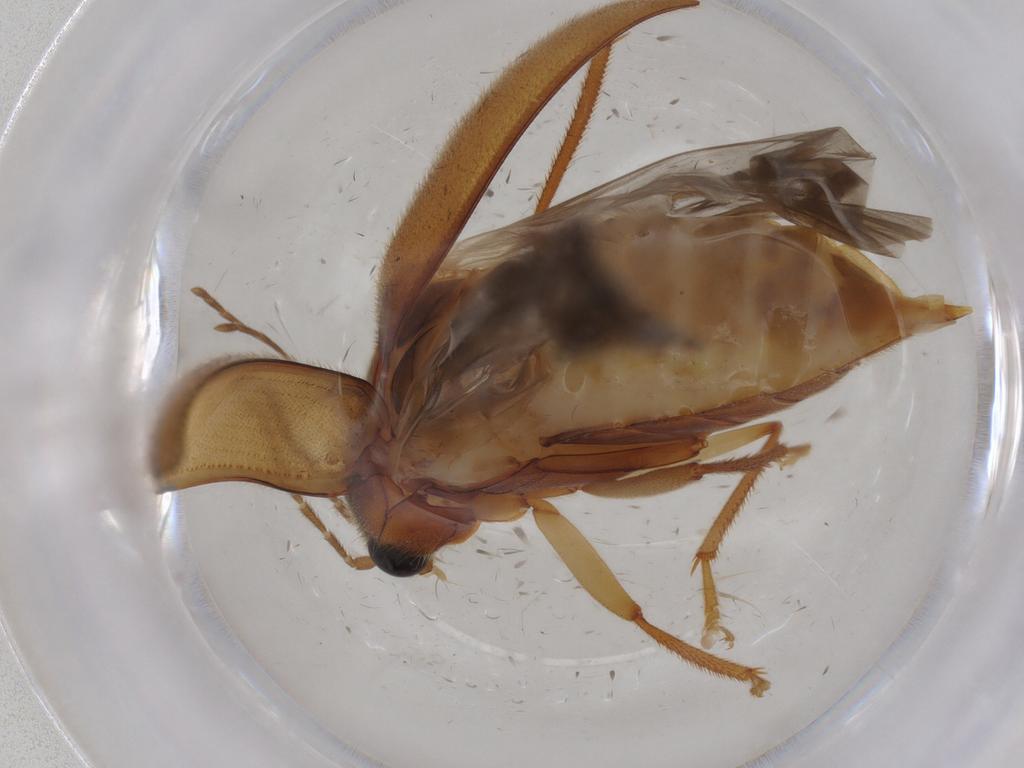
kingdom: Animalia
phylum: Arthropoda
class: Insecta
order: Coleoptera
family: Ptilodactylidae
